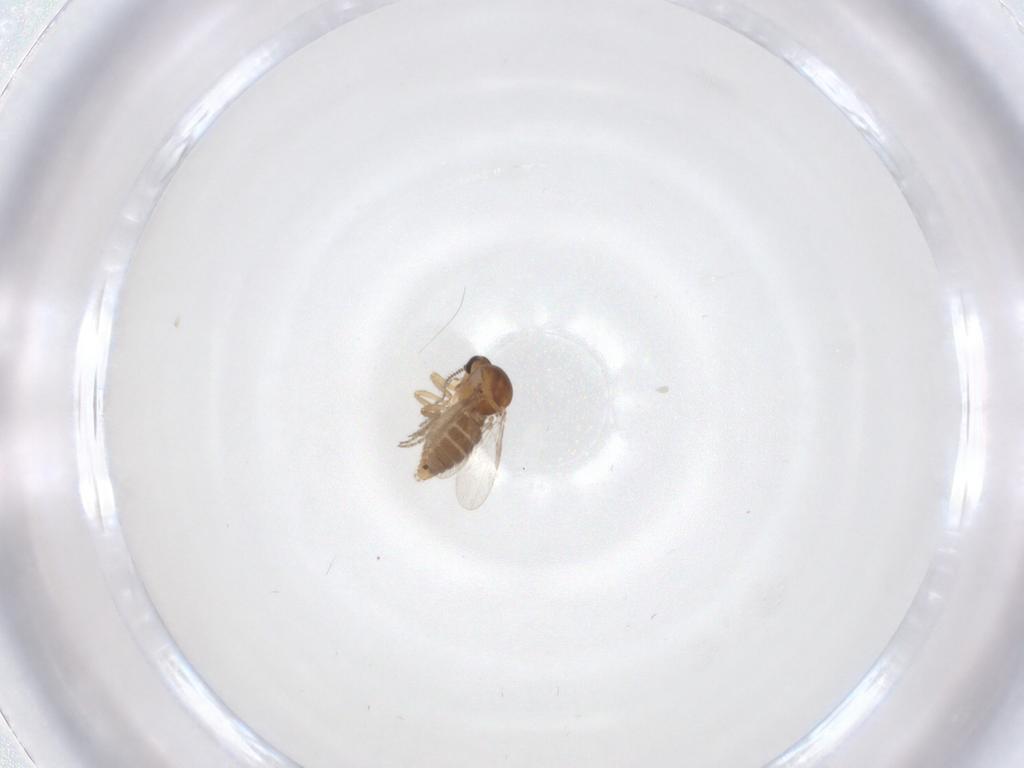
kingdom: Animalia
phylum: Arthropoda
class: Insecta
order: Diptera
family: Ceratopogonidae
